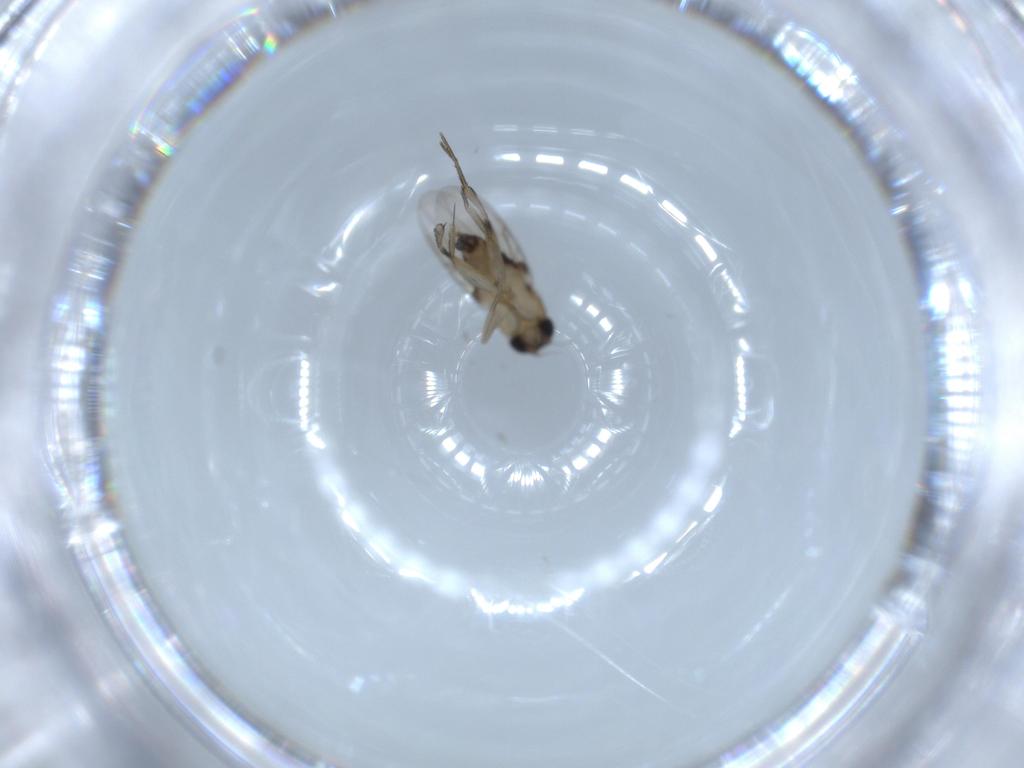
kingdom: Animalia
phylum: Arthropoda
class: Insecta
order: Diptera
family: Phoridae
